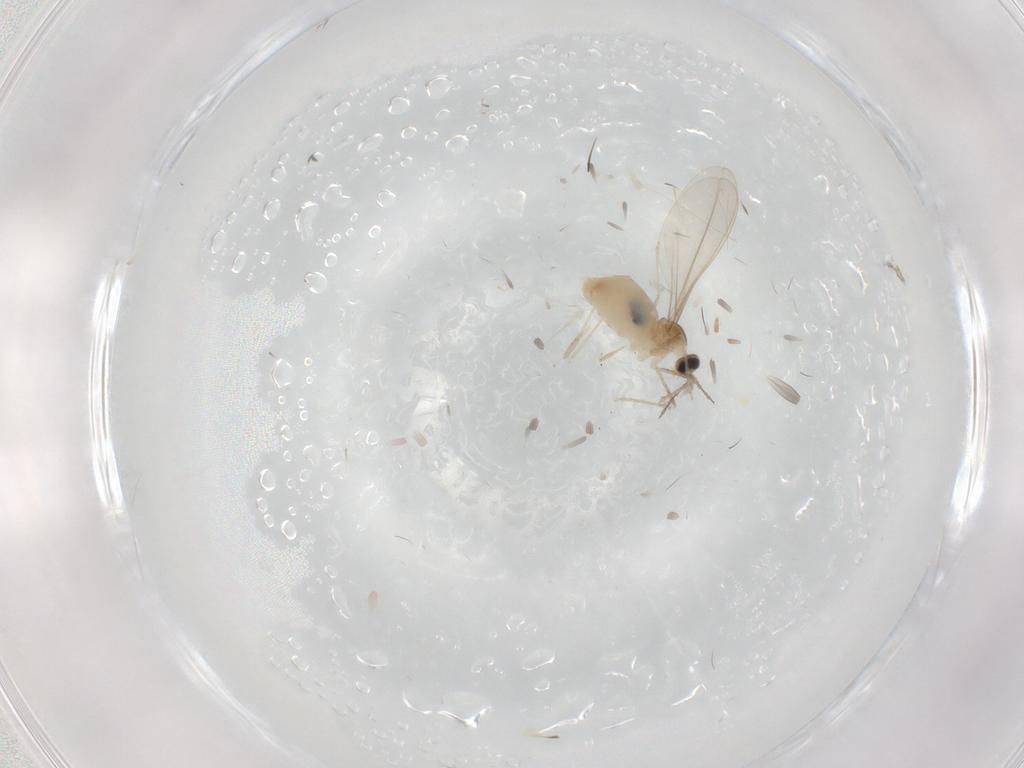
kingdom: Animalia
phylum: Arthropoda
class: Insecta
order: Diptera
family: Cecidomyiidae
